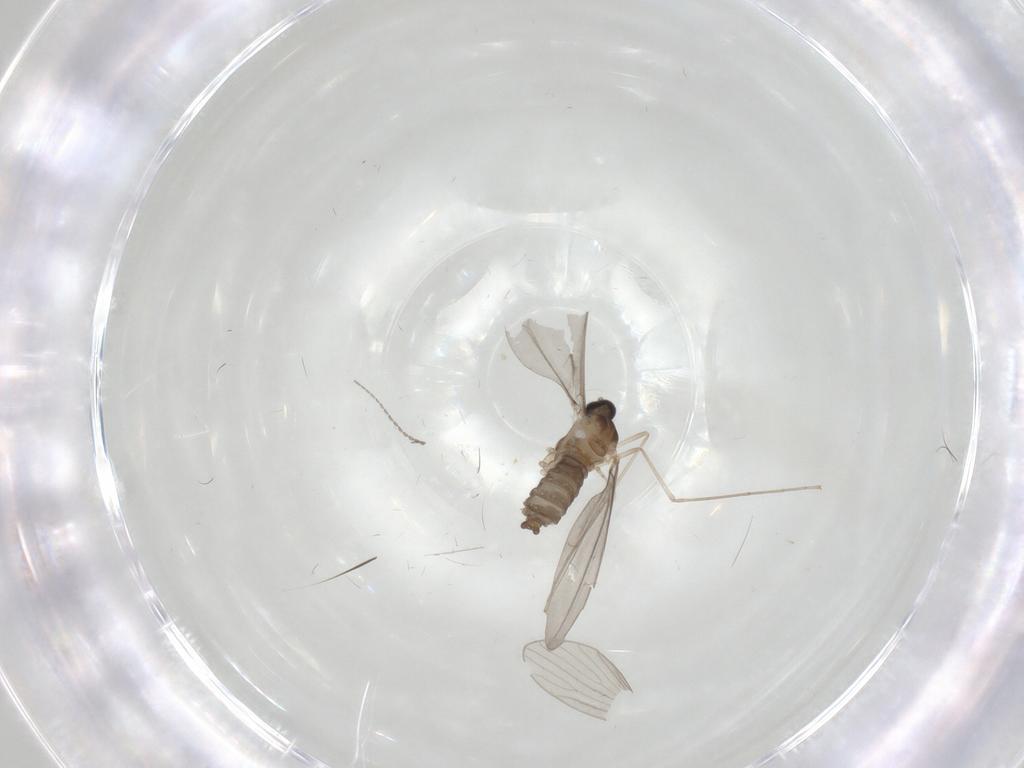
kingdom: Animalia
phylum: Arthropoda
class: Insecta
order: Diptera
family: Cecidomyiidae
